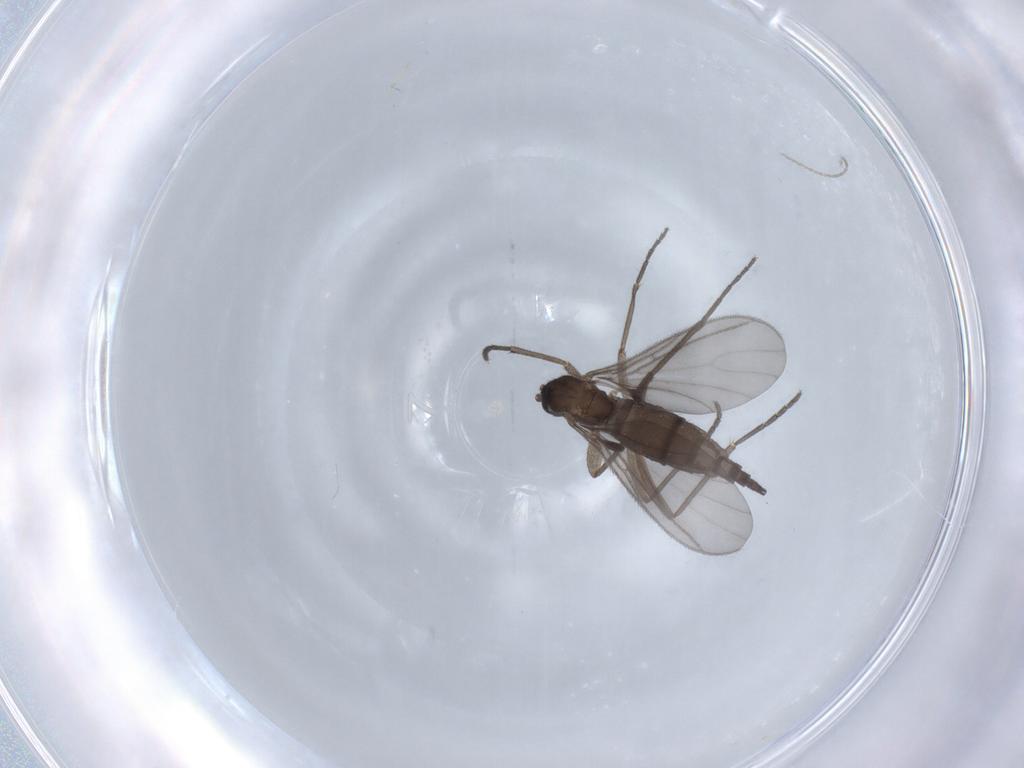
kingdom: Animalia
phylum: Arthropoda
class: Insecta
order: Diptera
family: Sciaridae
